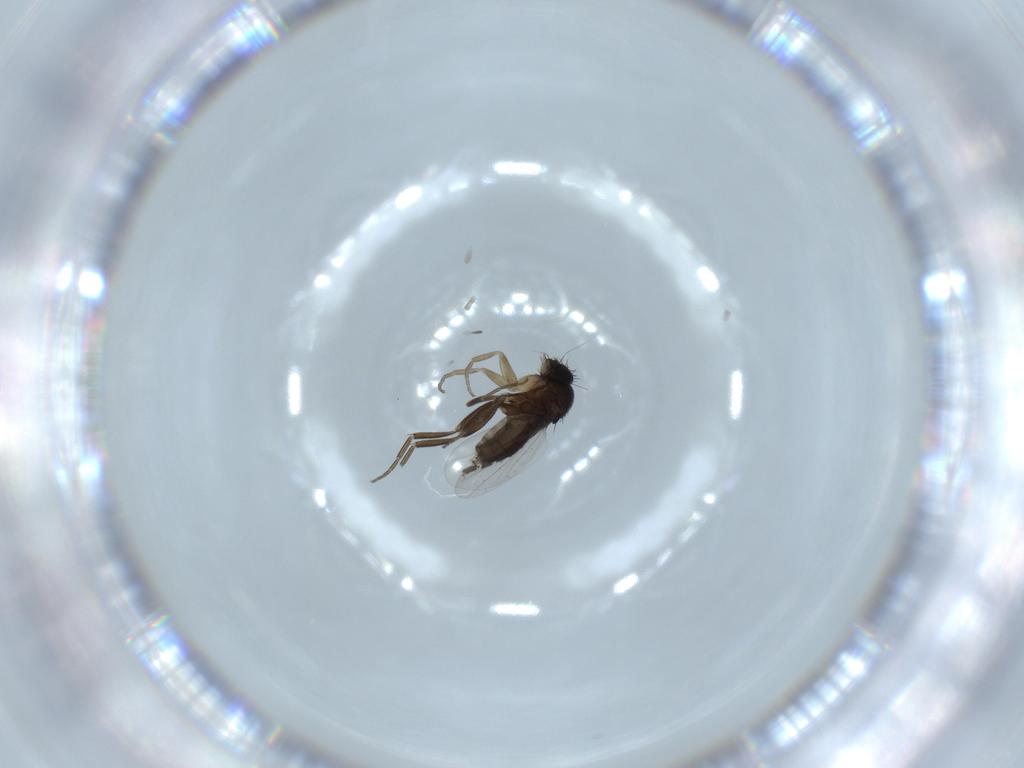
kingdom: Animalia
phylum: Arthropoda
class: Insecta
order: Diptera
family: Phoridae
